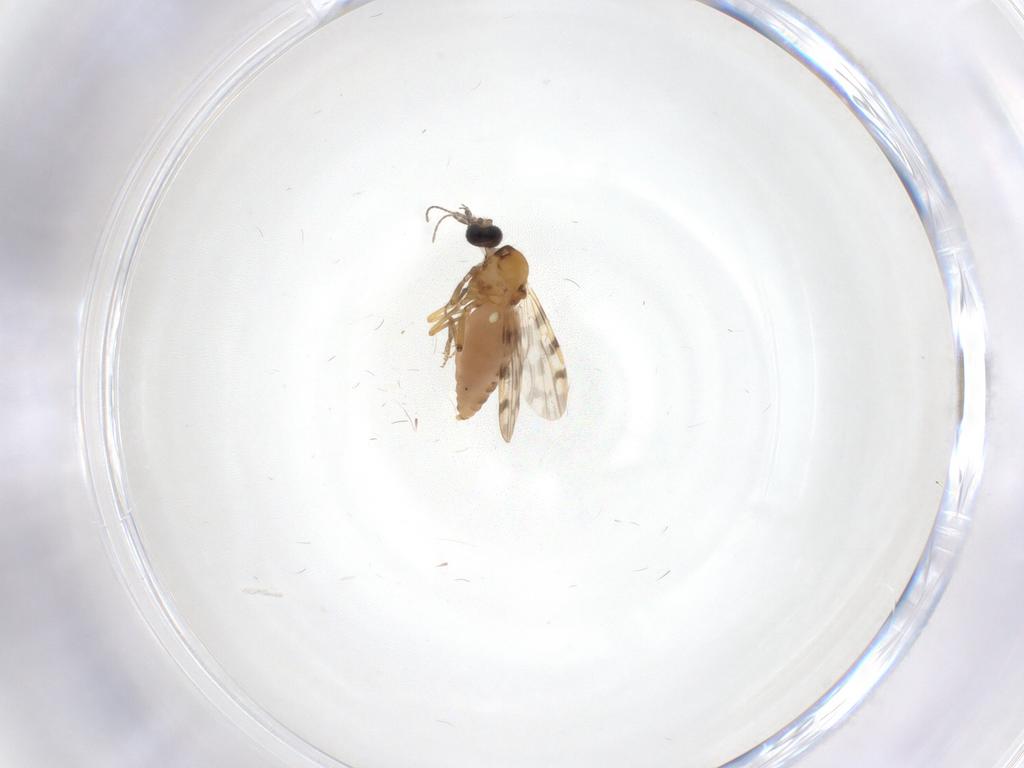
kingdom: Animalia
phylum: Arthropoda
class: Insecta
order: Diptera
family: Ceratopogonidae
